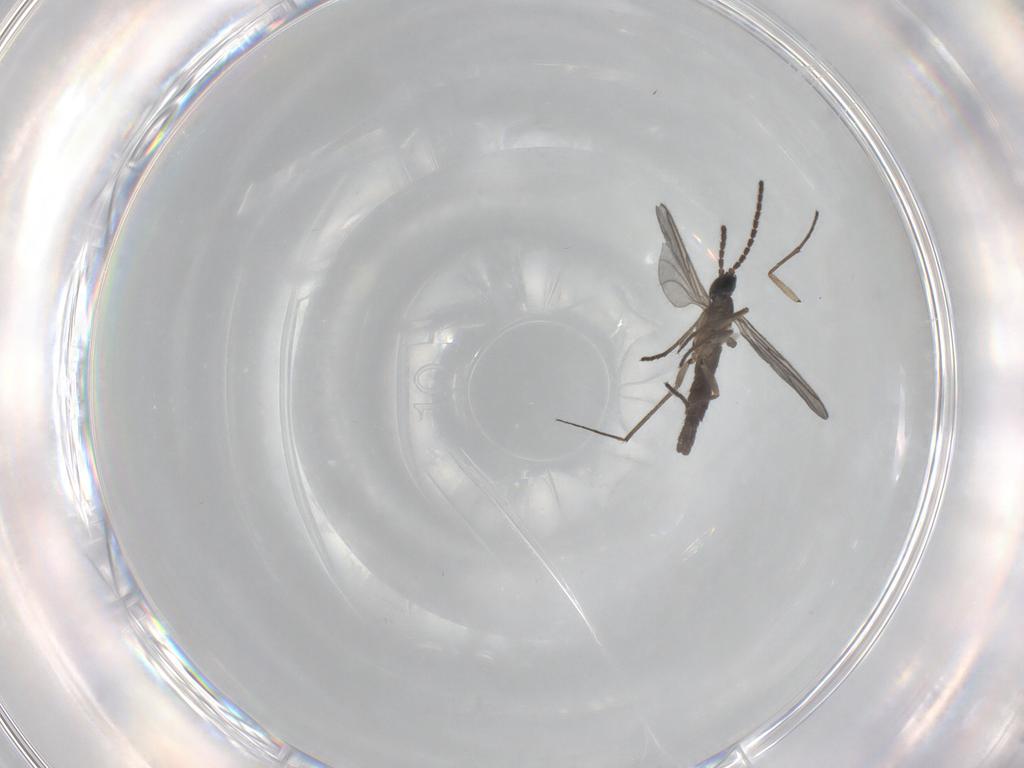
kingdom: Animalia
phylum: Arthropoda
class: Insecta
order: Diptera
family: Sciaridae
